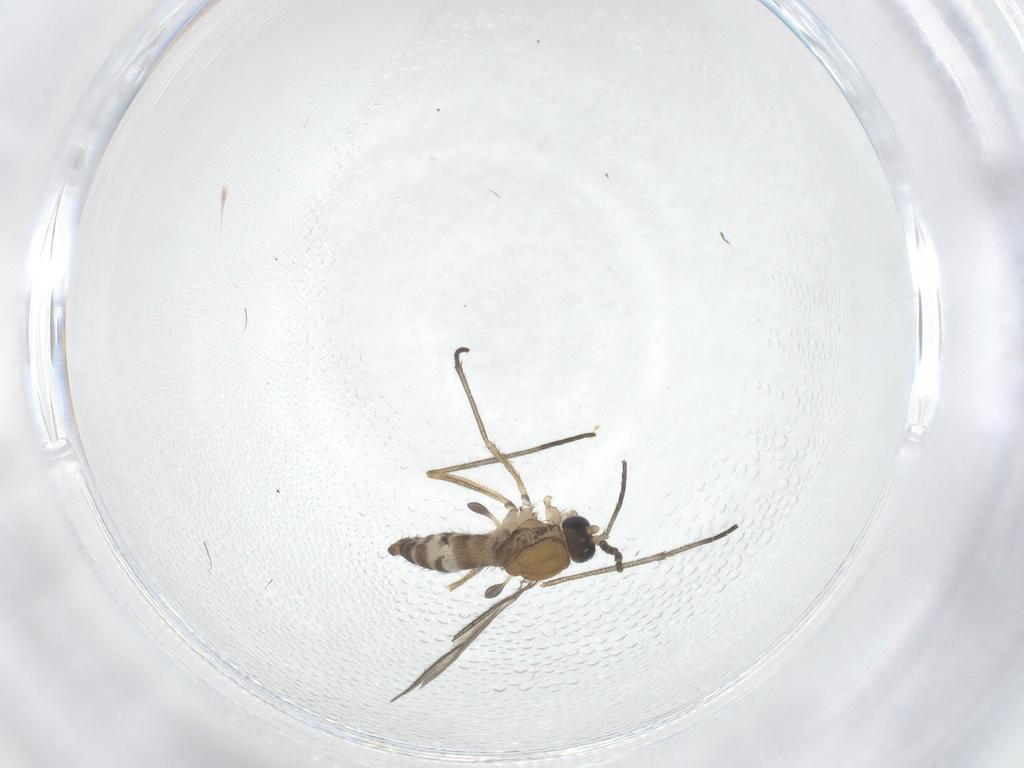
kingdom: Animalia
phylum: Arthropoda
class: Insecta
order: Diptera
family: Sciaridae
